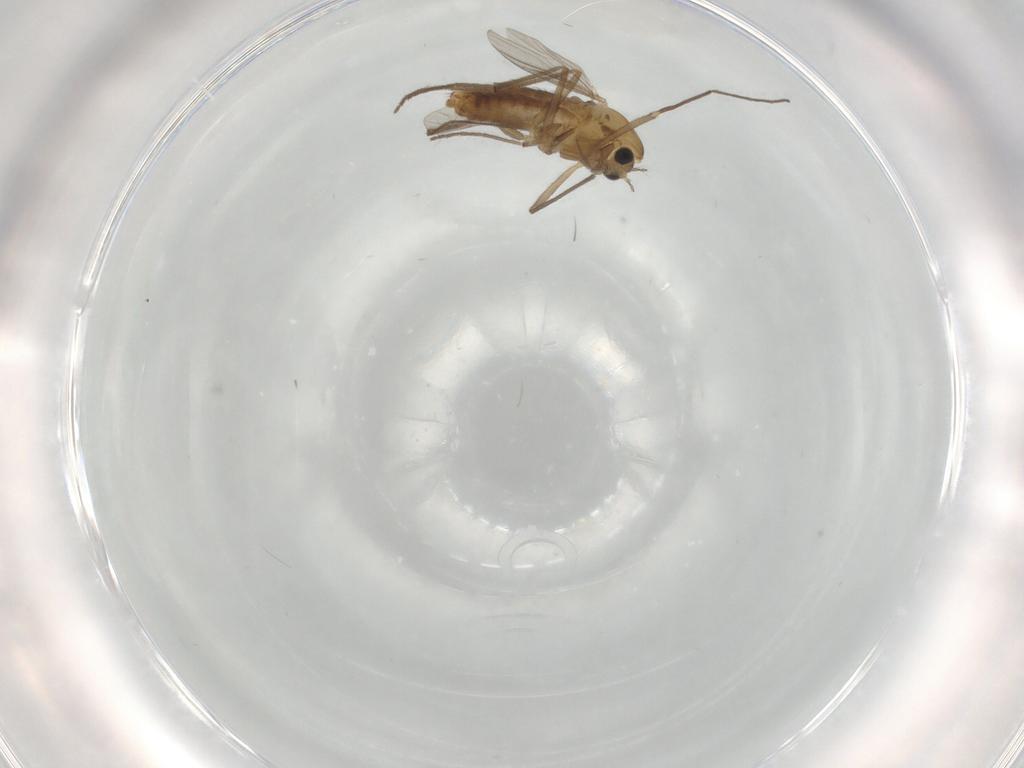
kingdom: Animalia
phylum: Arthropoda
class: Insecta
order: Diptera
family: Chironomidae
